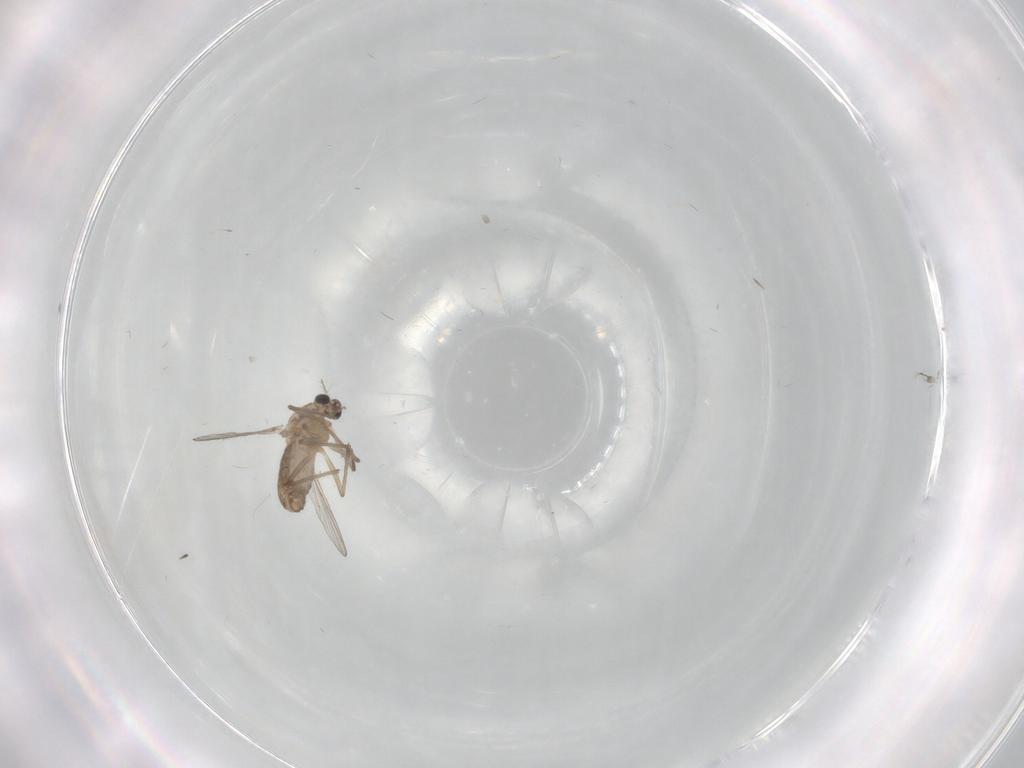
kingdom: Animalia
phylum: Arthropoda
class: Insecta
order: Diptera
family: Chironomidae
